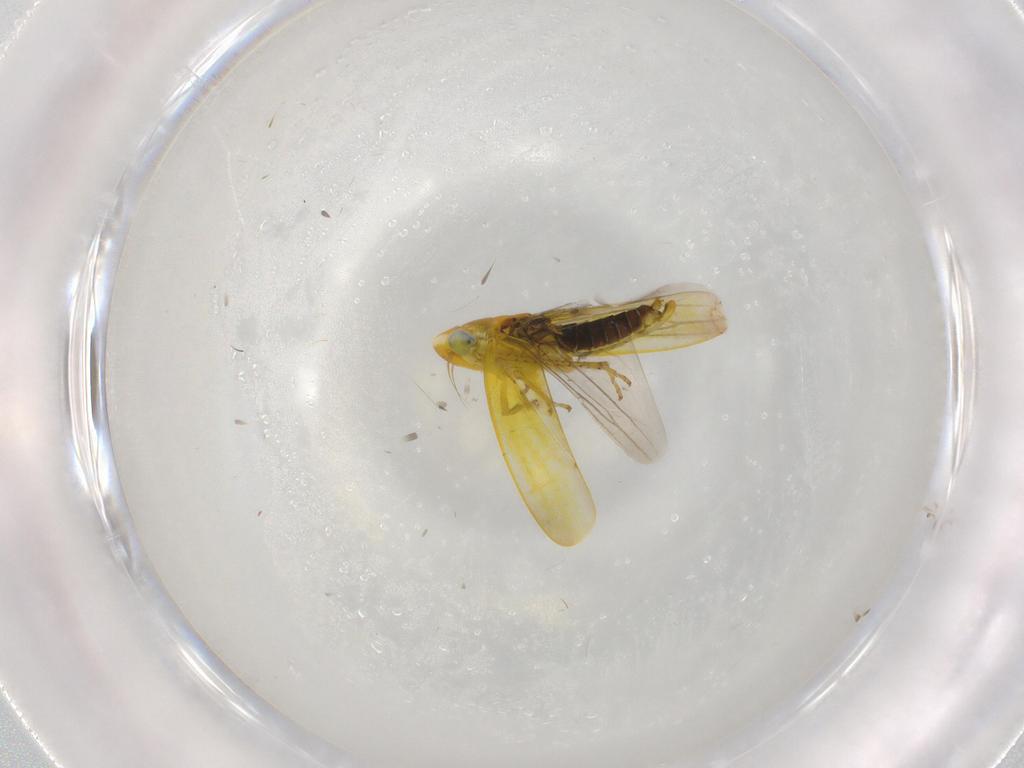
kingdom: Animalia
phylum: Arthropoda
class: Insecta
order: Hemiptera
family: Cicadellidae
